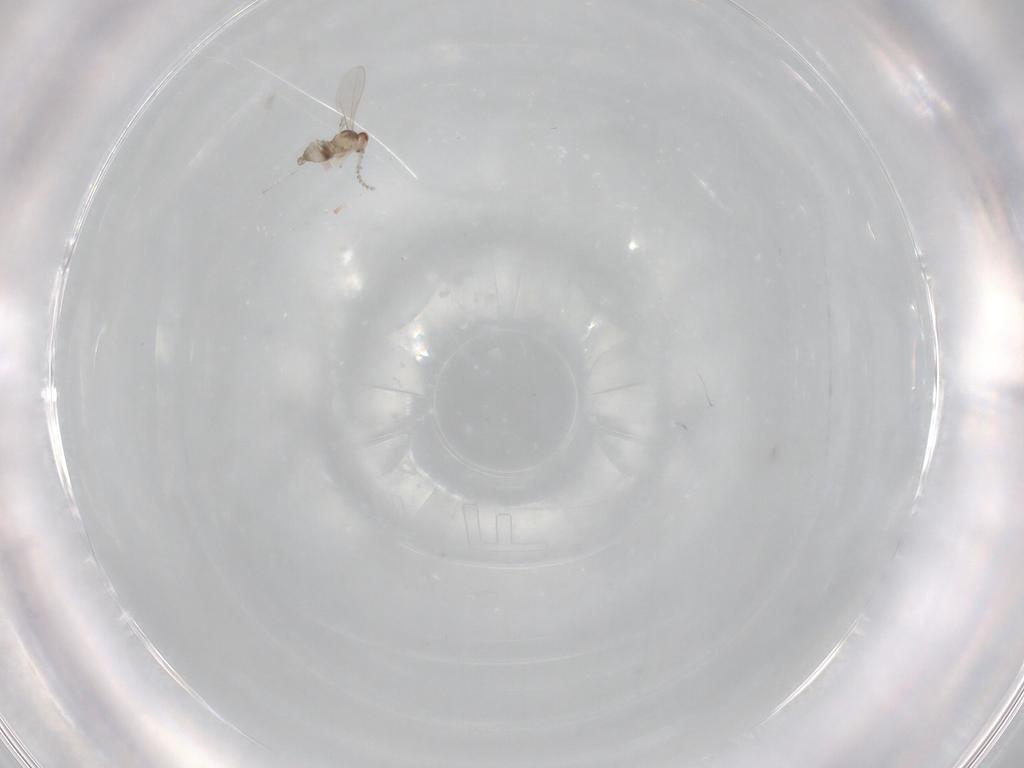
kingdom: Animalia
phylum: Arthropoda
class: Insecta
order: Diptera
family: Cecidomyiidae
